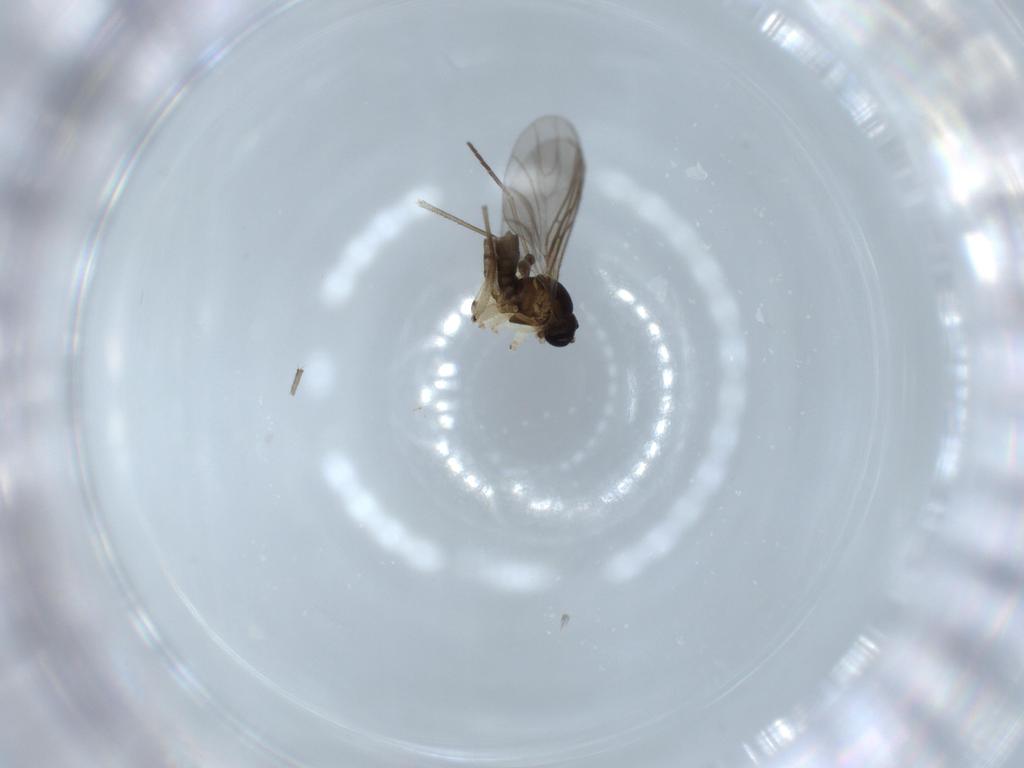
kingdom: Animalia
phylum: Arthropoda
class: Insecta
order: Diptera
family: Sciaridae
